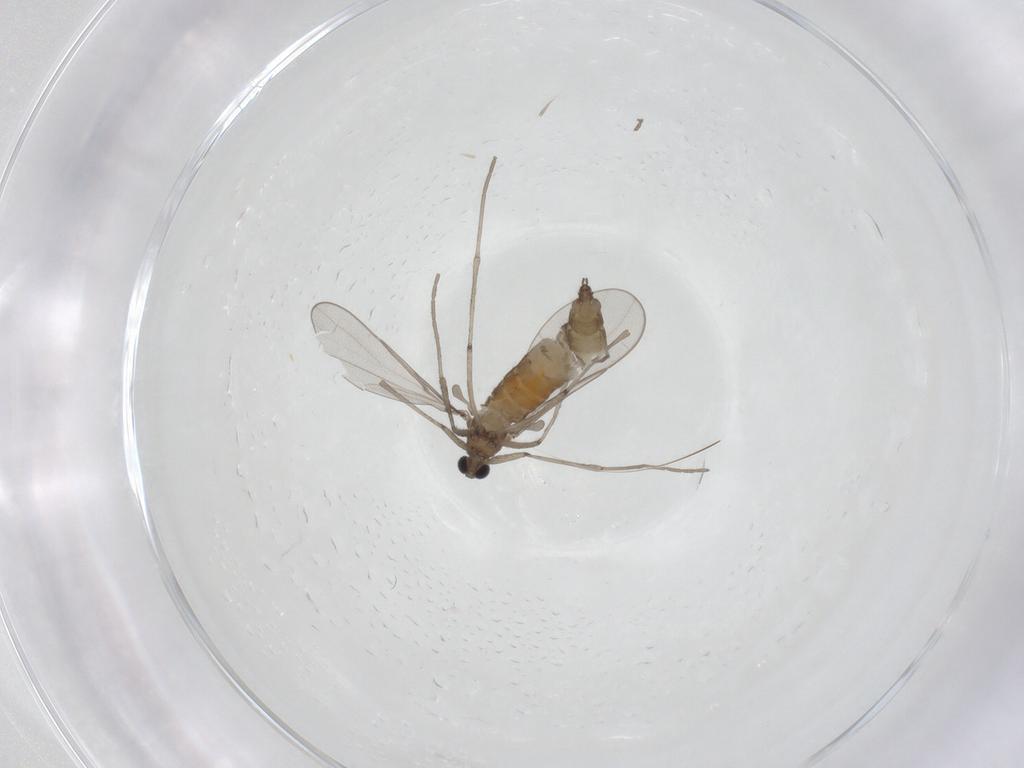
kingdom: Animalia
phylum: Arthropoda
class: Insecta
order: Diptera
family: Cecidomyiidae
